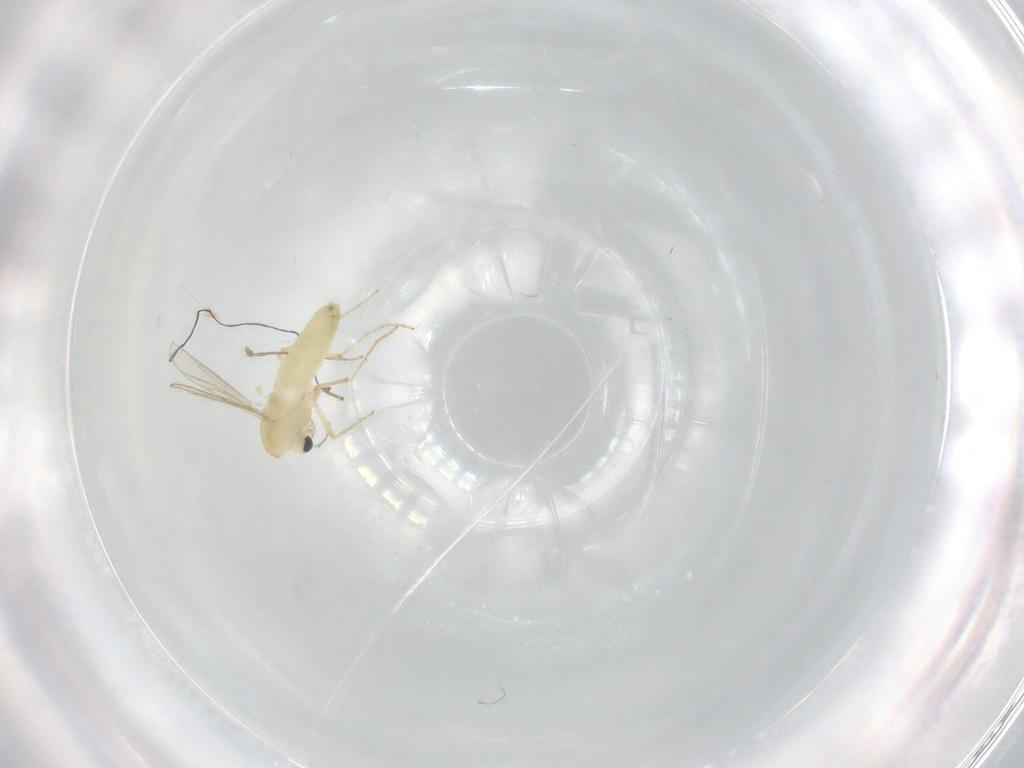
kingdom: Animalia
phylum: Arthropoda
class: Insecta
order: Diptera
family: Chironomidae
